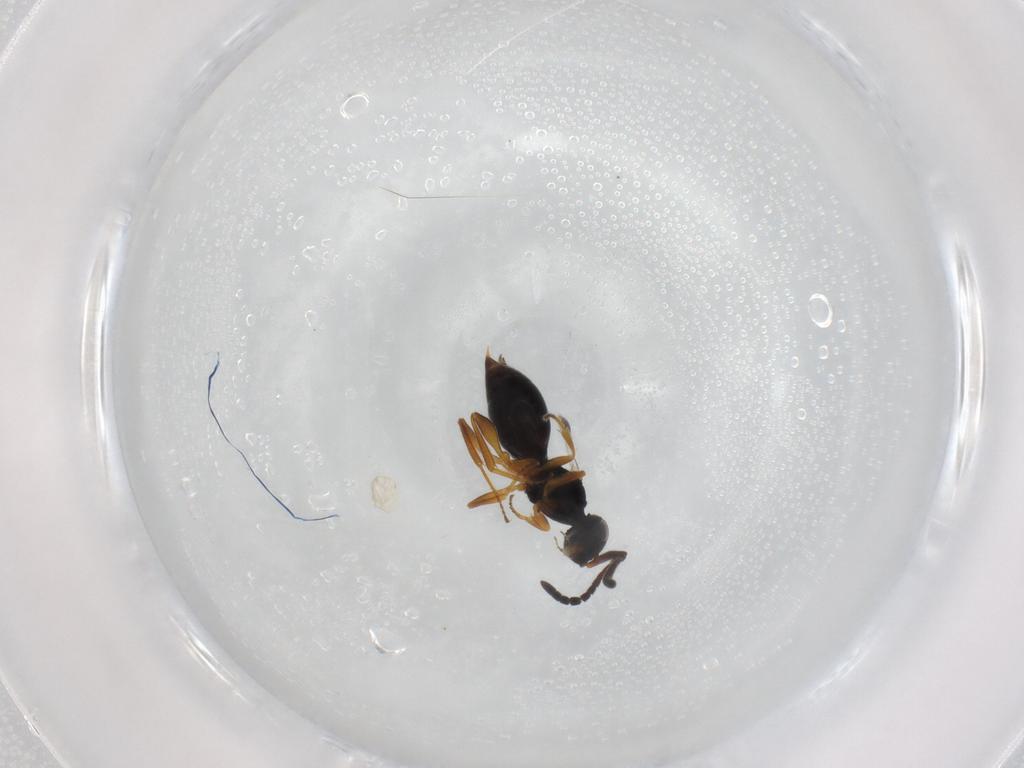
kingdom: Animalia
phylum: Arthropoda
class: Insecta
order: Hymenoptera
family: Megaspilidae
